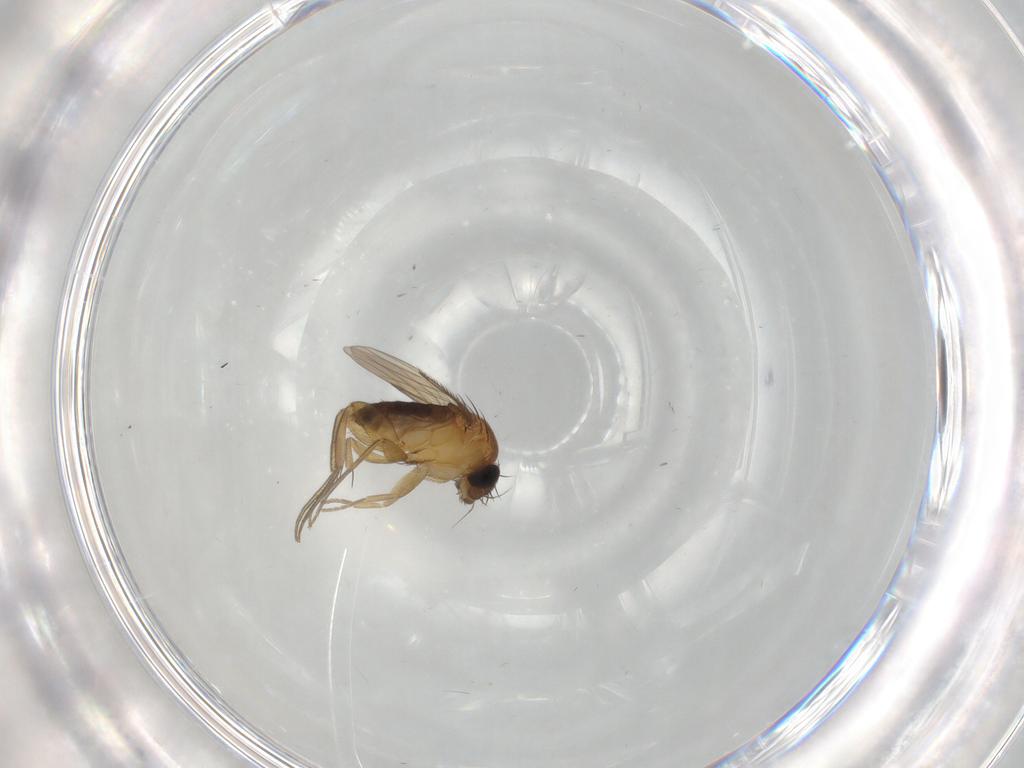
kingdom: Animalia
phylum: Arthropoda
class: Insecta
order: Diptera
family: Phoridae
